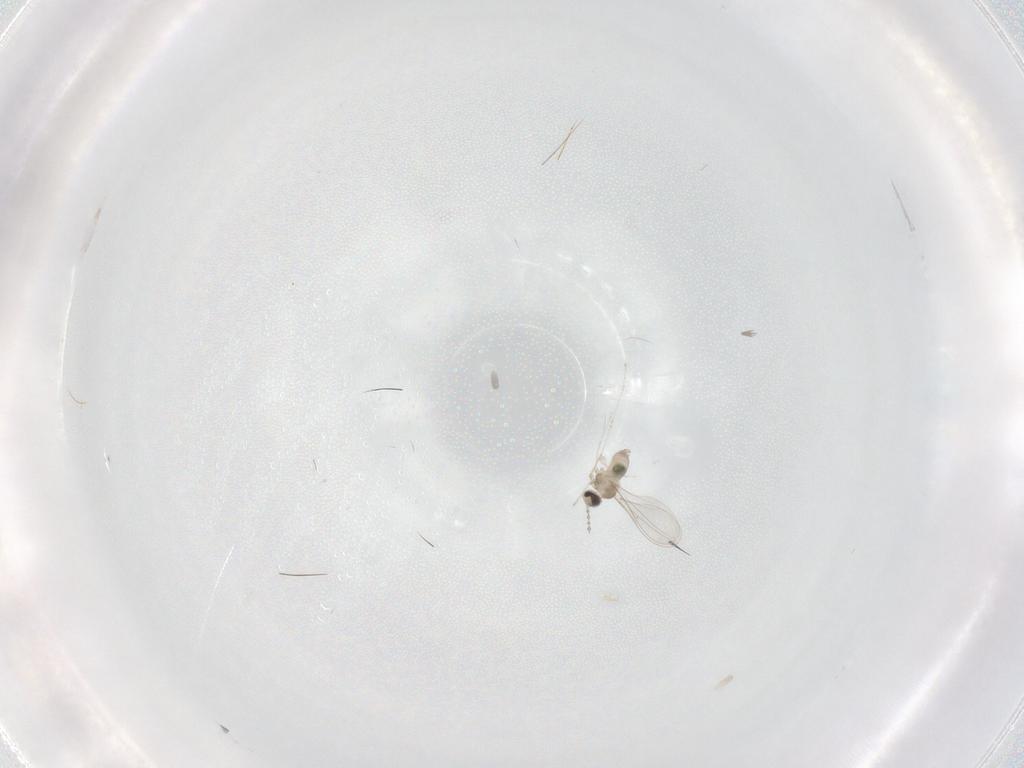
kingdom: Animalia
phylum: Arthropoda
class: Insecta
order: Diptera
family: Cecidomyiidae
